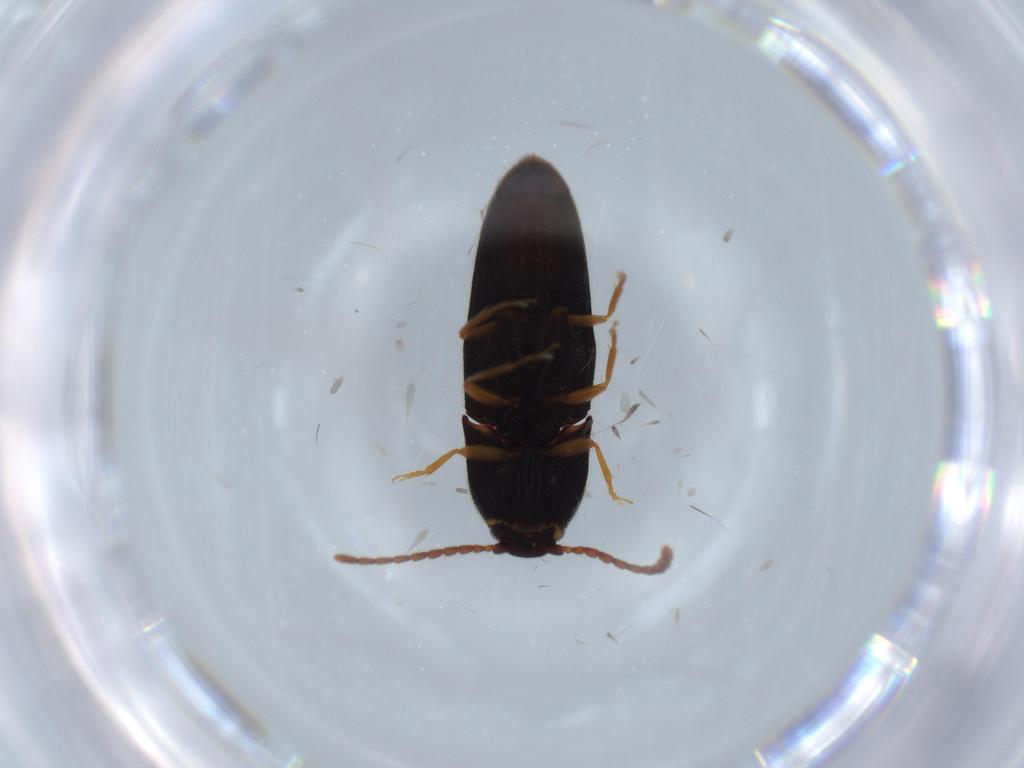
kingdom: Animalia
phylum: Arthropoda
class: Insecta
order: Coleoptera
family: Elateridae
